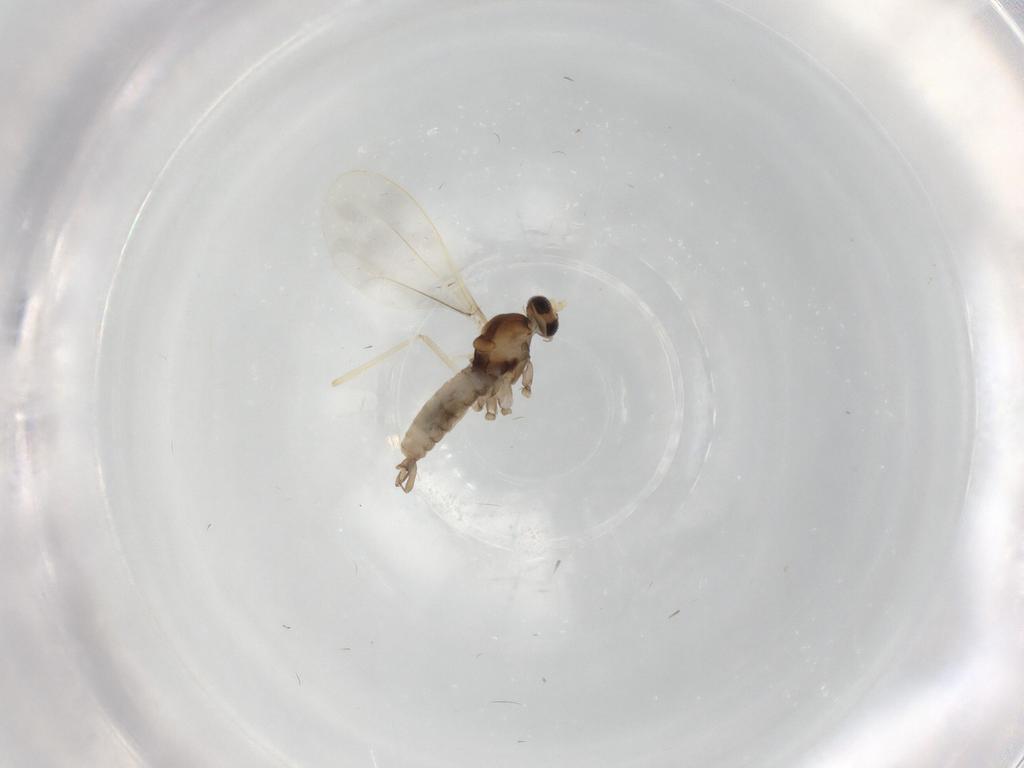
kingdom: Animalia
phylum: Arthropoda
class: Insecta
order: Diptera
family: Cecidomyiidae
